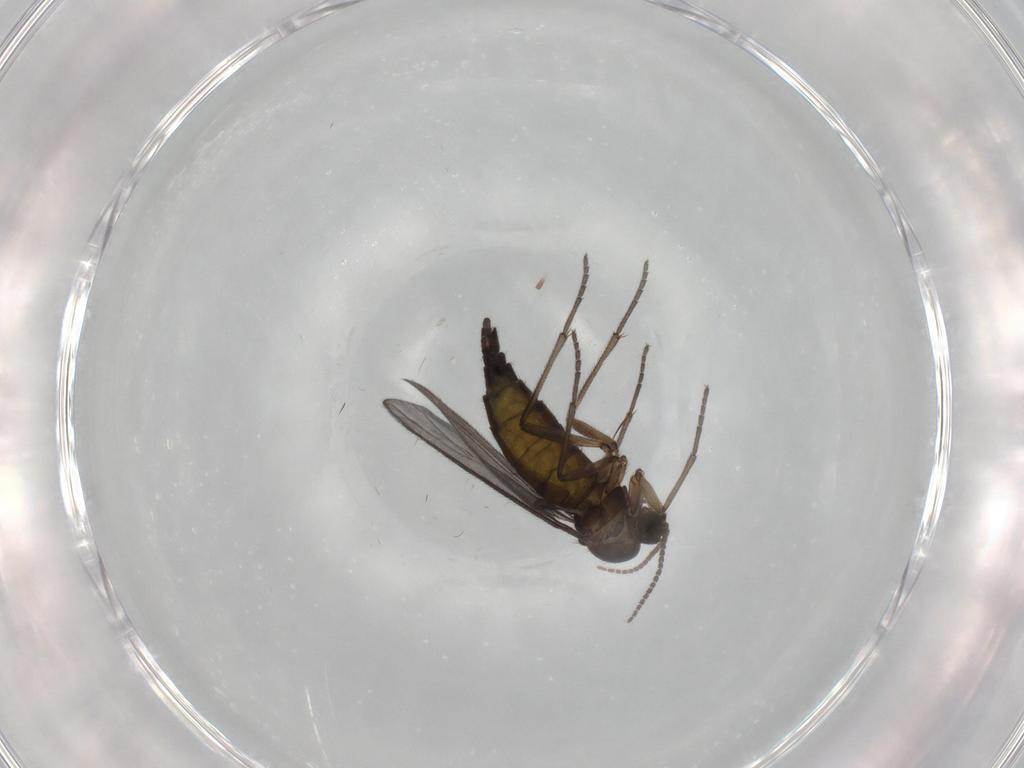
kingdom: Animalia
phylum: Arthropoda
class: Insecta
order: Diptera
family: Sciaridae
